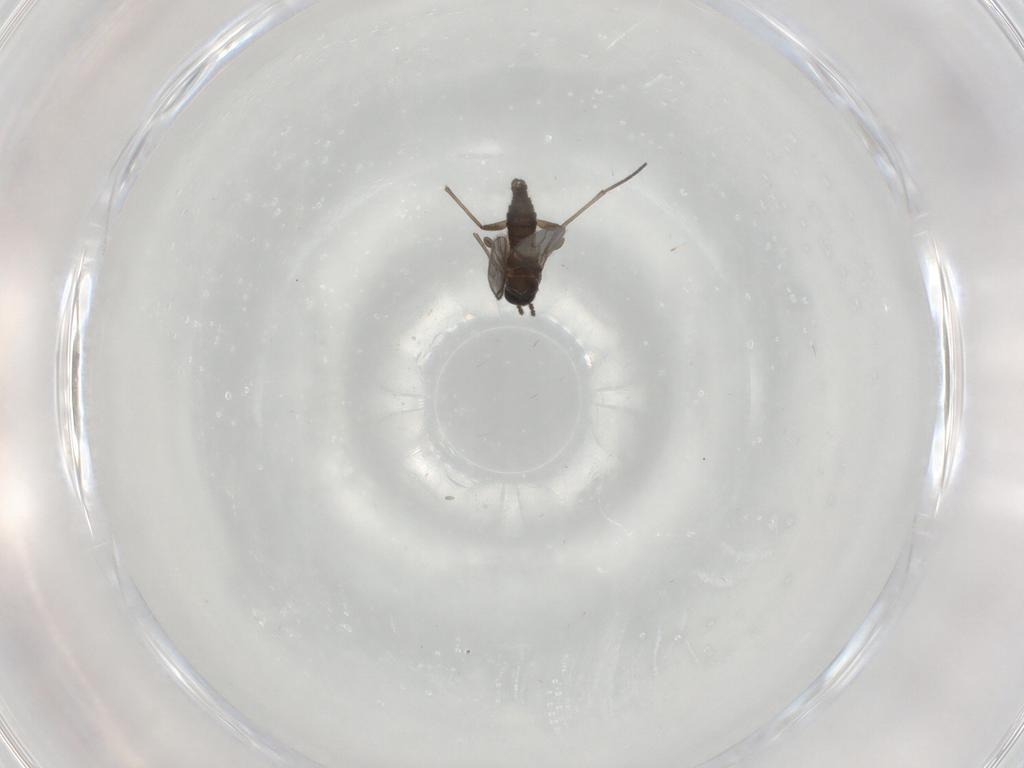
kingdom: Animalia
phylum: Arthropoda
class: Insecta
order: Diptera
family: Sciaridae
